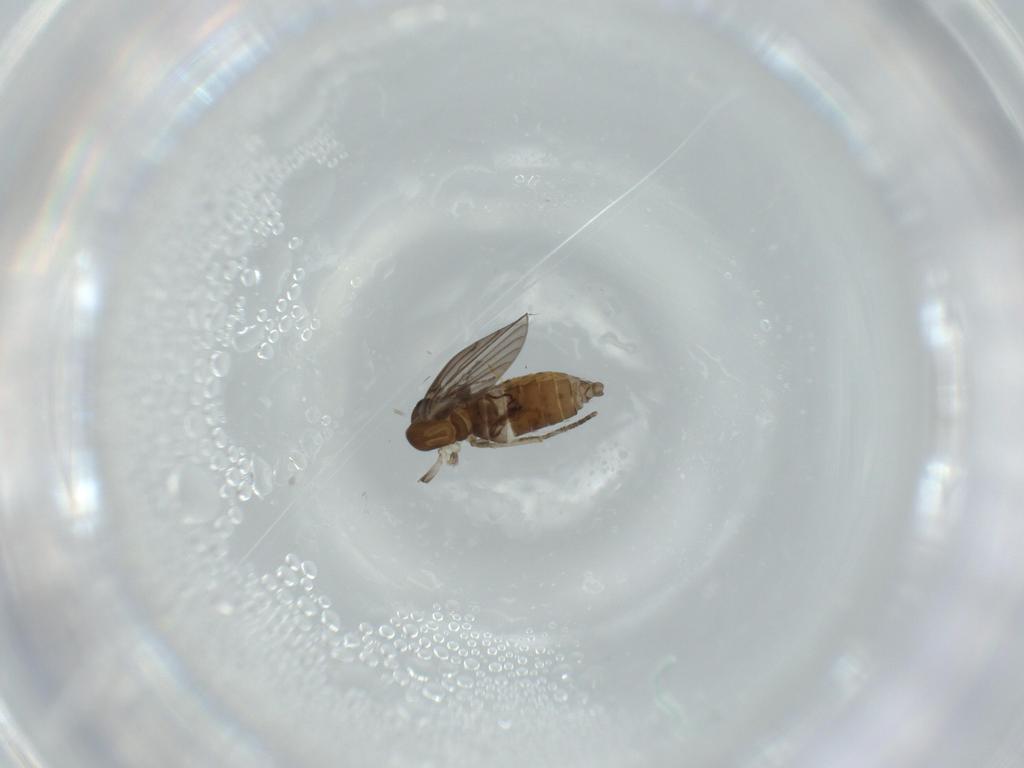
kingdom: Animalia
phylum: Arthropoda
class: Insecta
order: Diptera
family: Psychodidae
